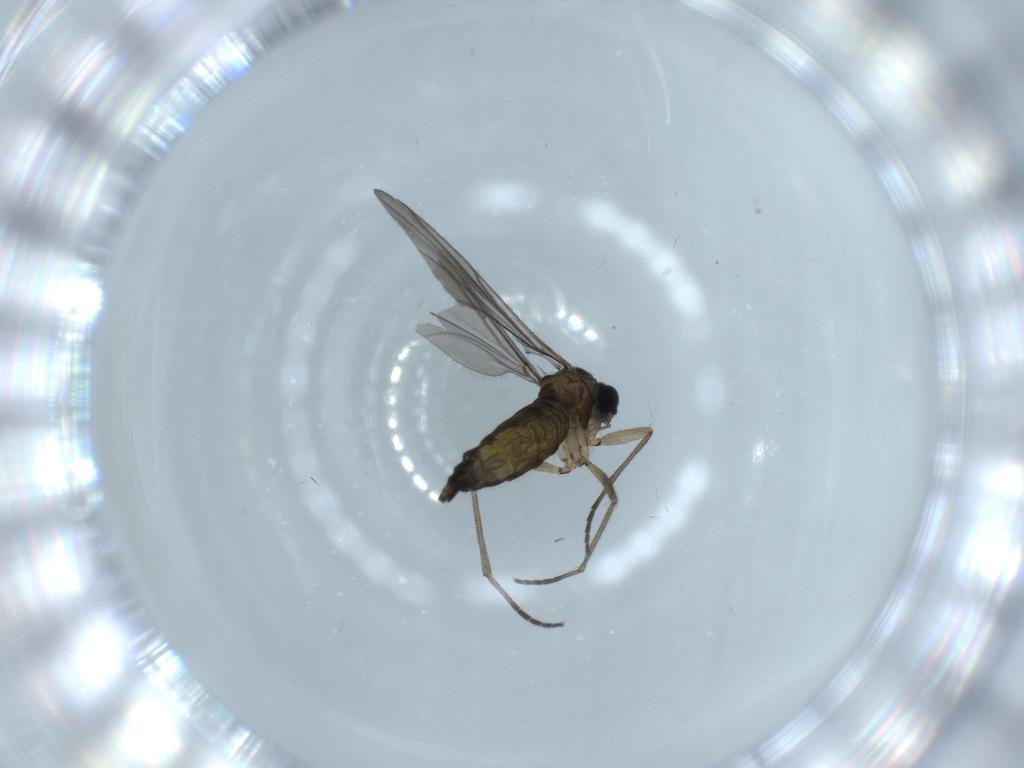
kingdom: Animalia
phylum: Arthropoda
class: Insecta
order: Diptera
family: Sciaridae
